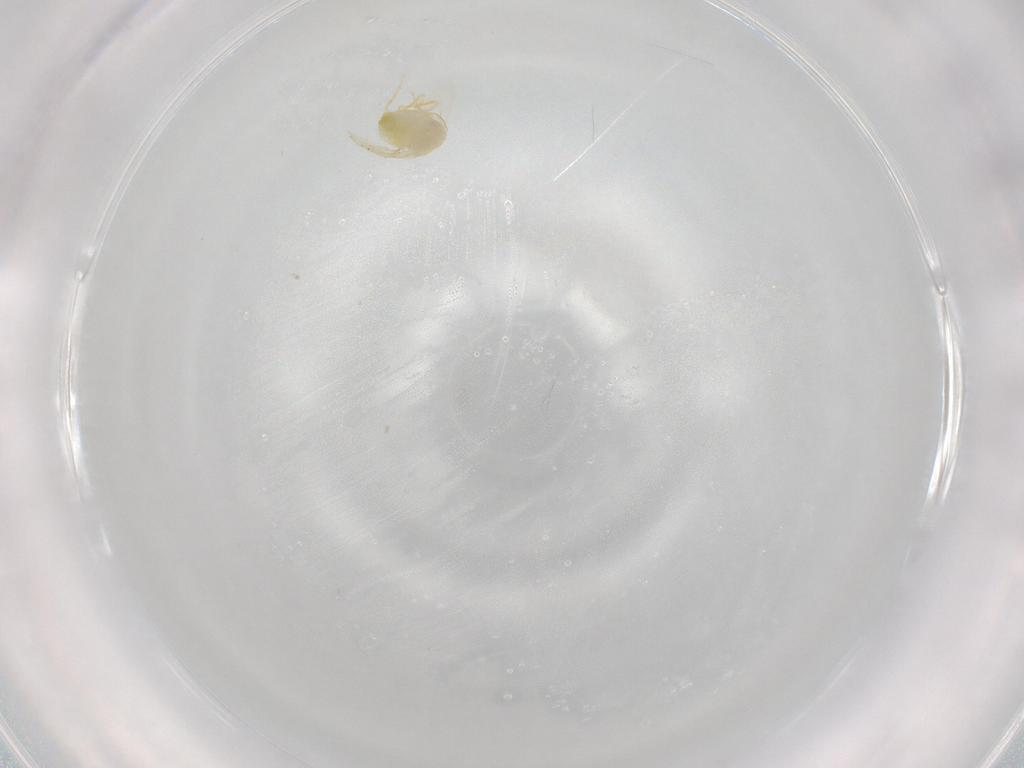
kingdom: Animalia
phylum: Arthropoda
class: Insecta
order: Hemiptera
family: Aleyrodidae
